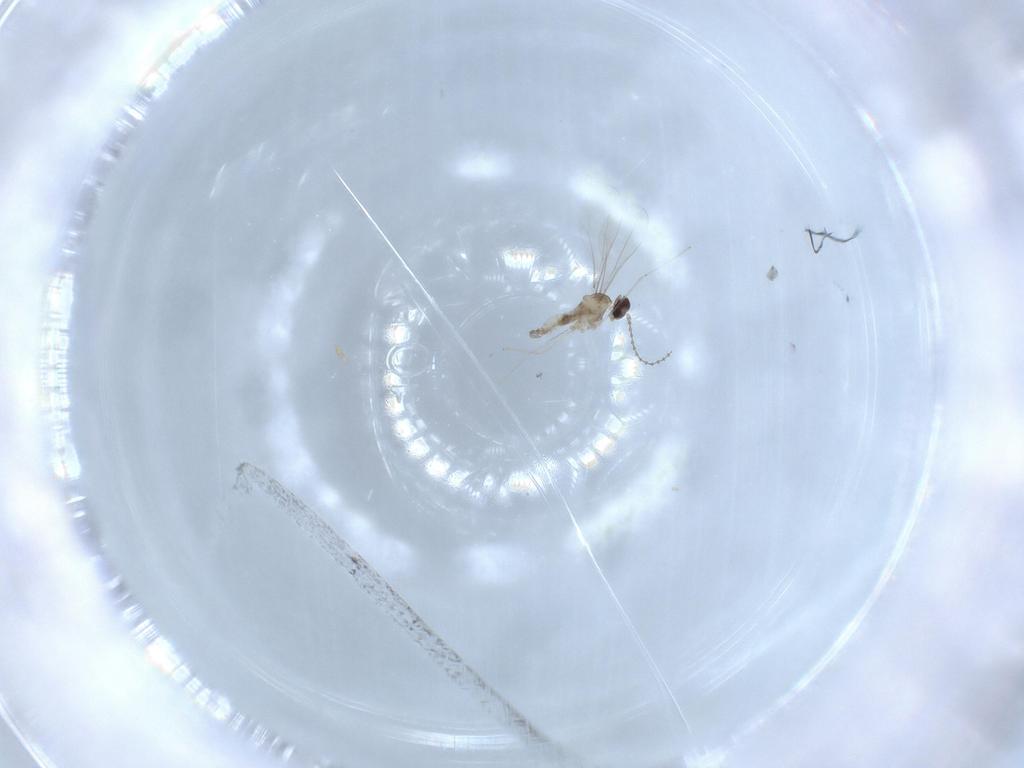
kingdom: Animalia
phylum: Arthropoda
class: Insecta
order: Diptera
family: Cecidomyiidae
